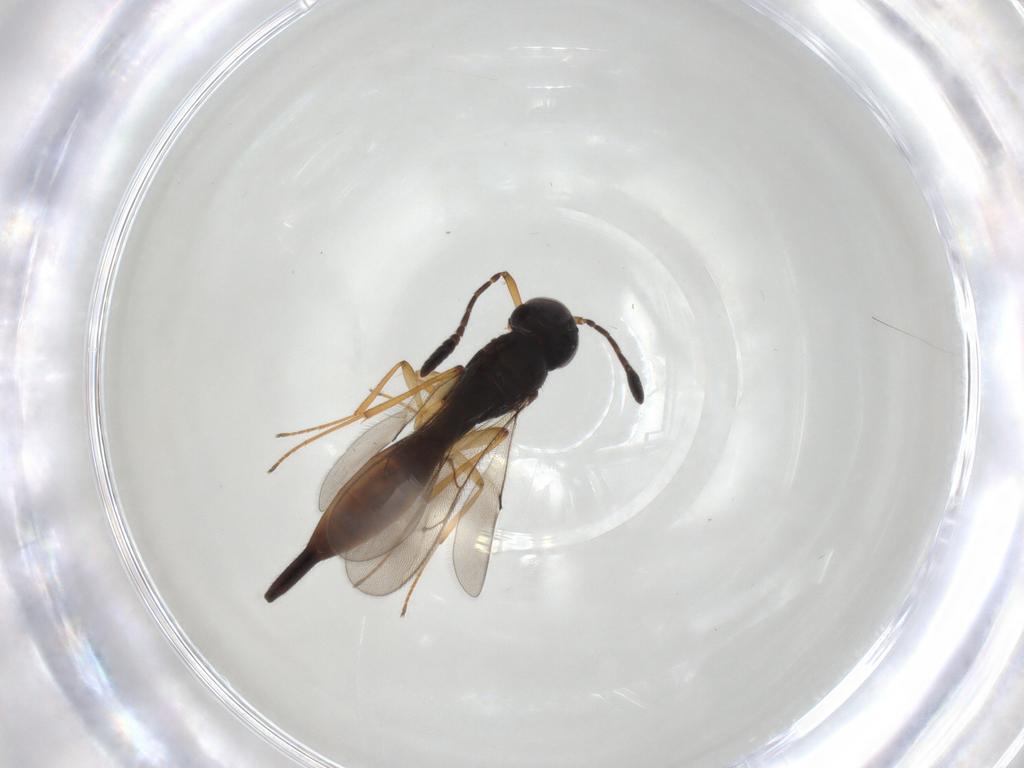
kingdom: Animalia
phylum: Arthropoda
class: Insecta
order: Hymenoptera
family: Scelionidae
